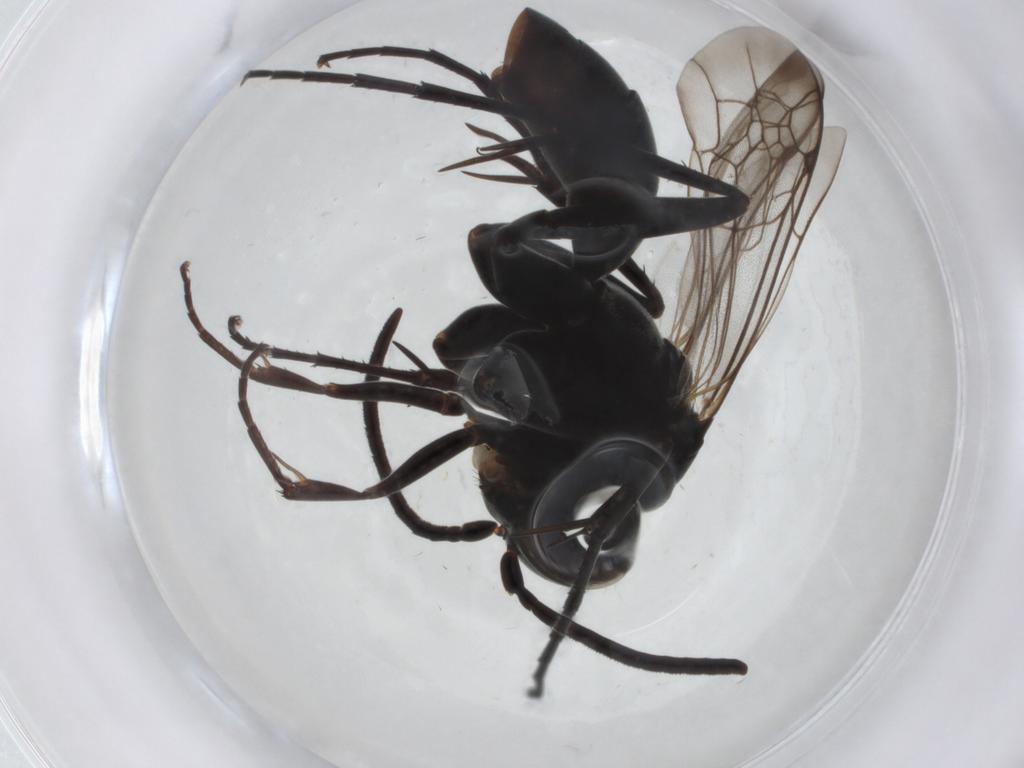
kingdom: Animalia
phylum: Arthropoda
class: Insecta
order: Hymenoptera
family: Pompilidae
